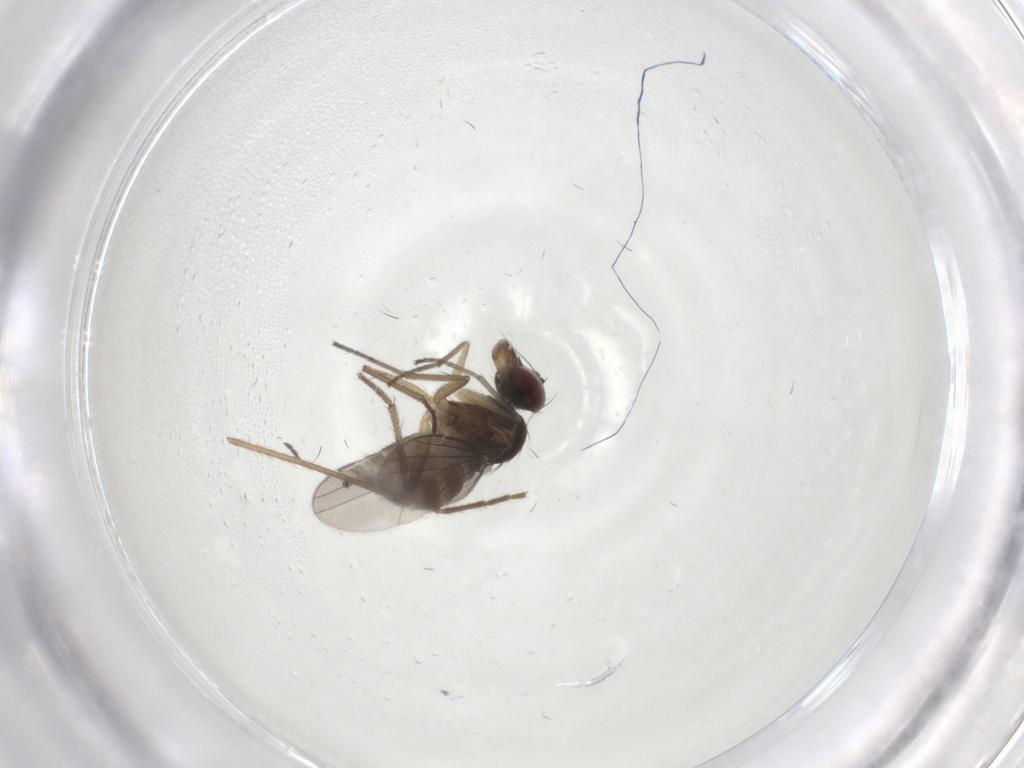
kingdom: Animalia
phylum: Arthropoda
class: Insecta
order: Diptera
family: Dolichopodidae
